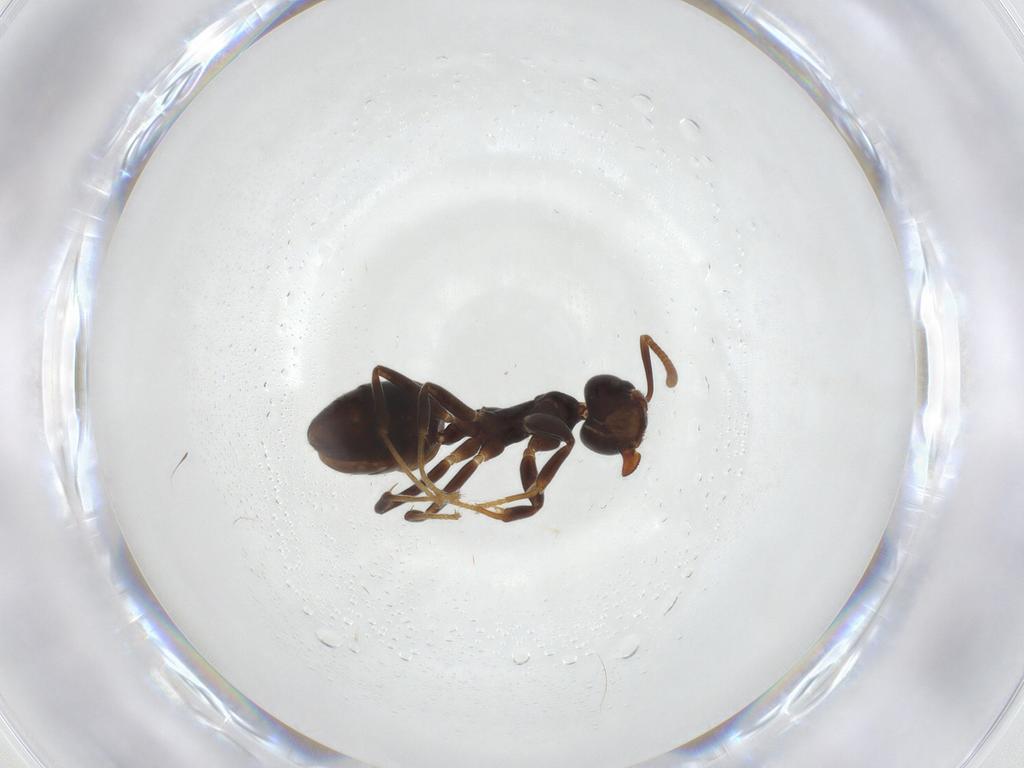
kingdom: Animalia
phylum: Arthropoda
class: Insecta
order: Hymenoptera
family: Formicidae
